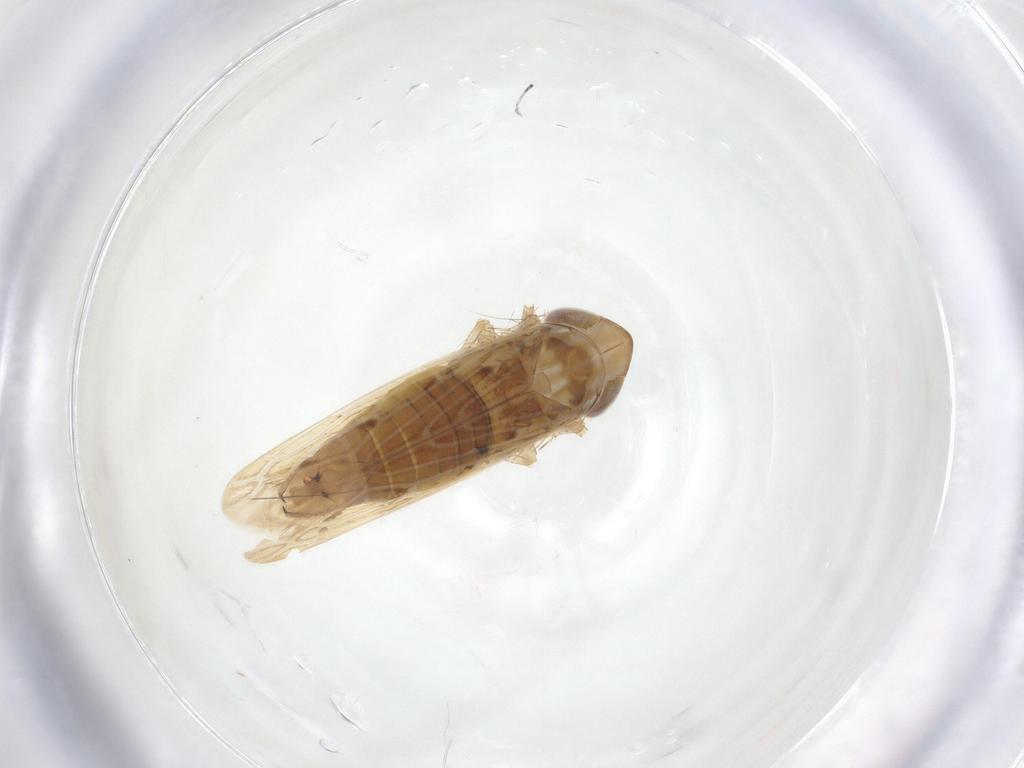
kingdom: Animalia
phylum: Arthropoda
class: Insecta
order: Hemiptera
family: Cicadellidae
